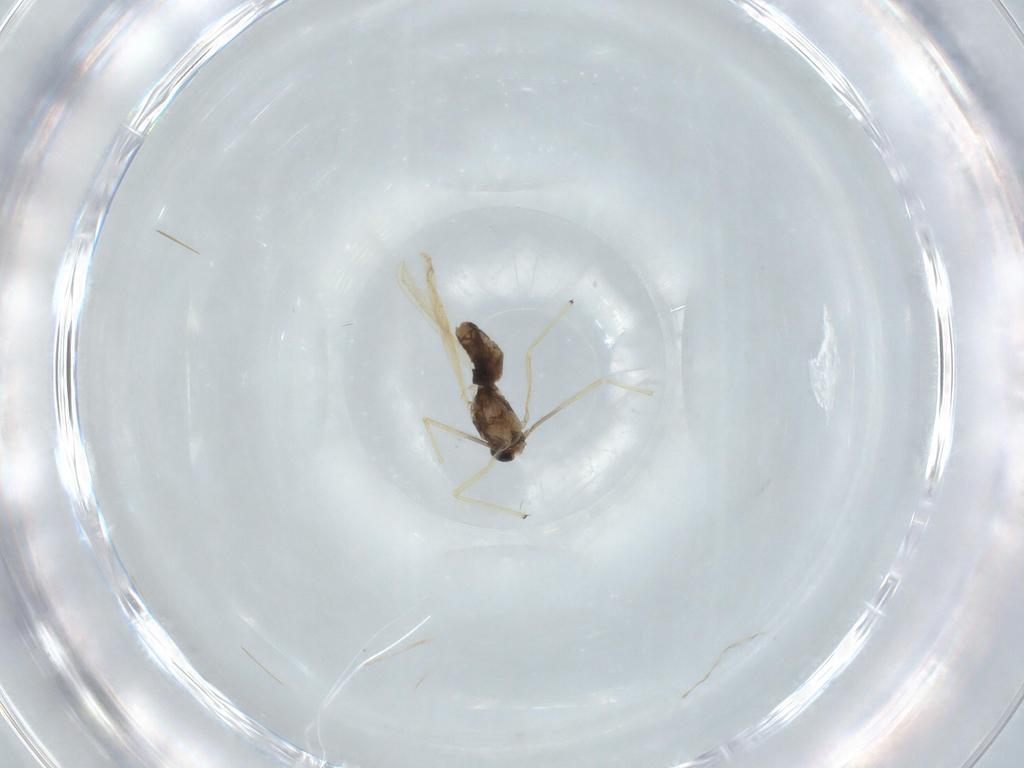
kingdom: Animalia
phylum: Arthropoda
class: Insecta
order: Diptera
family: Chironomidae
